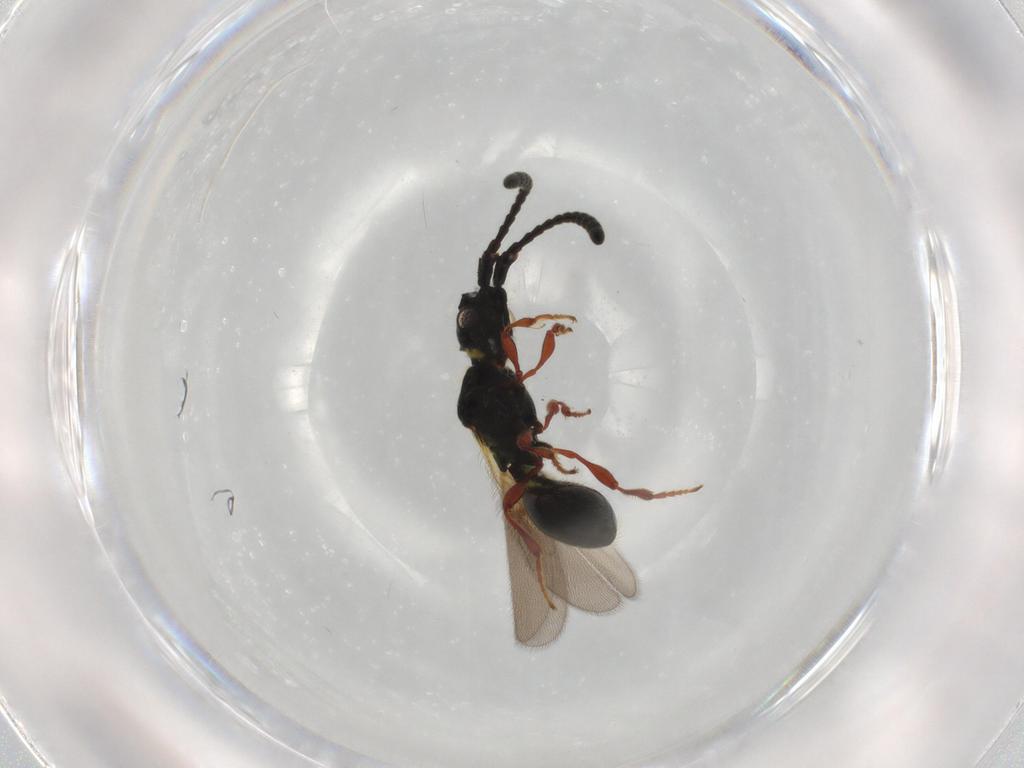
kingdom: Animalia
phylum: Arthropoda
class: Insecta
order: Hymenoptera
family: Diapriidae
